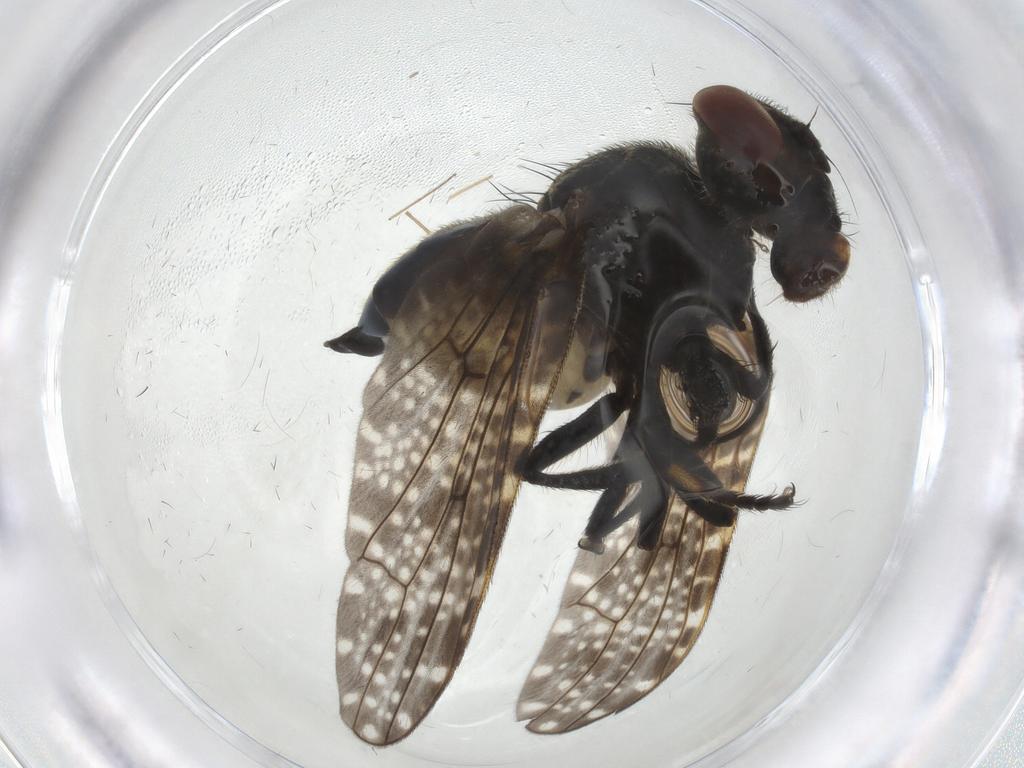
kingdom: Animalia
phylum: Arthropoda
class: Insecta
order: Diptera
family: Platystomatidae
